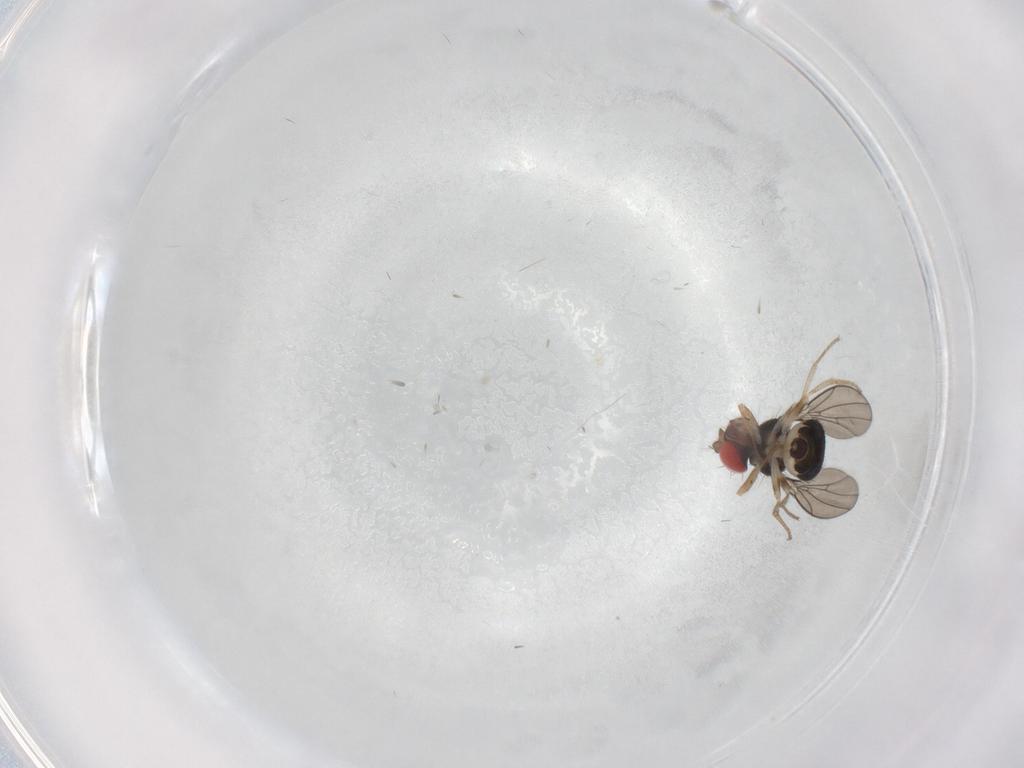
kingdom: Animalia
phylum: Arthropoda
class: Insecta
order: Diptera
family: Drosophilidae
